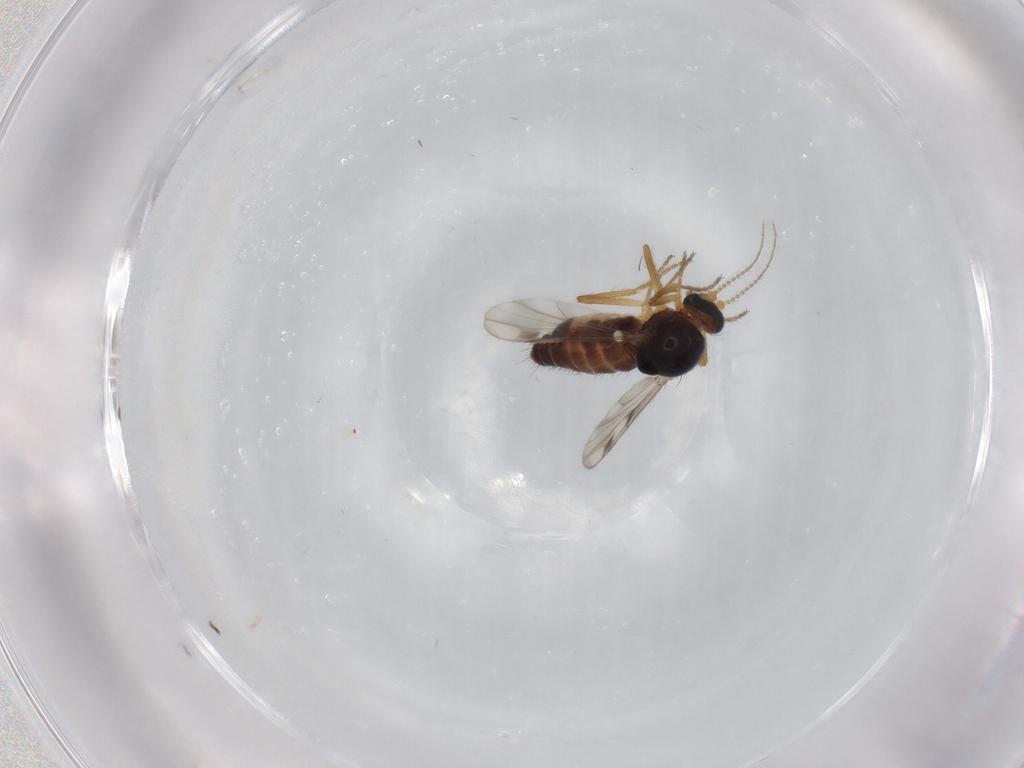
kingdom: Animalia
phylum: Arthropoda
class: Insecta
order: Diptera
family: Ceratopogonidae
